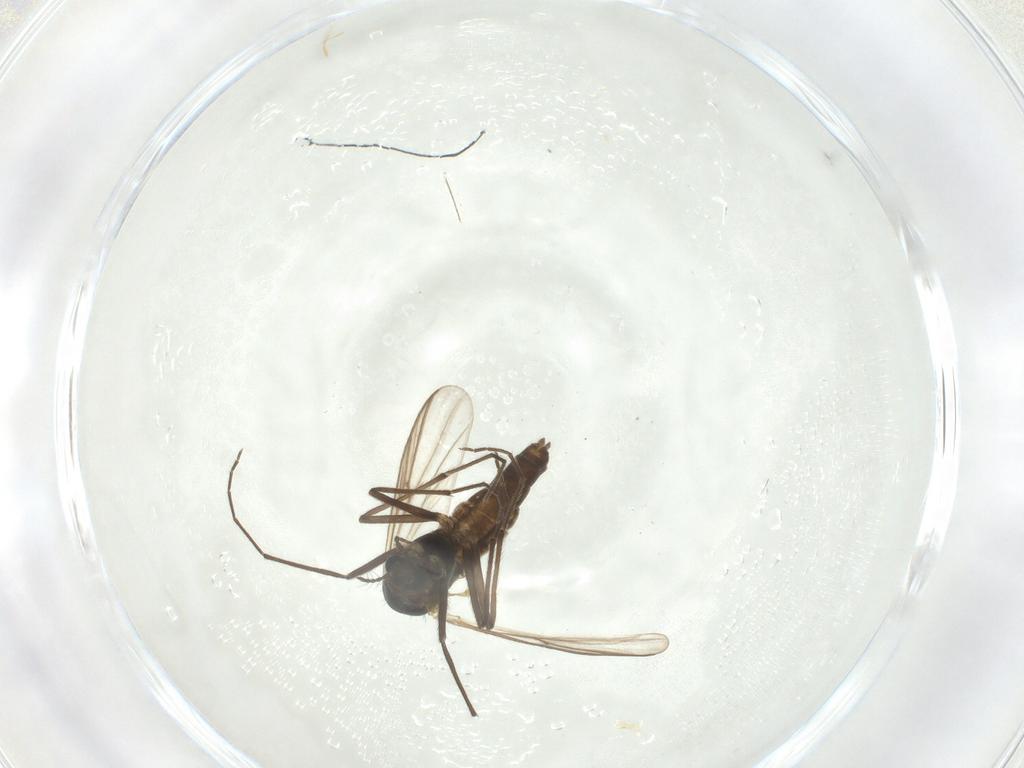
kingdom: Animalia
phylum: Arthropoda
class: Insecta
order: Diptera
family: Chironomidae
